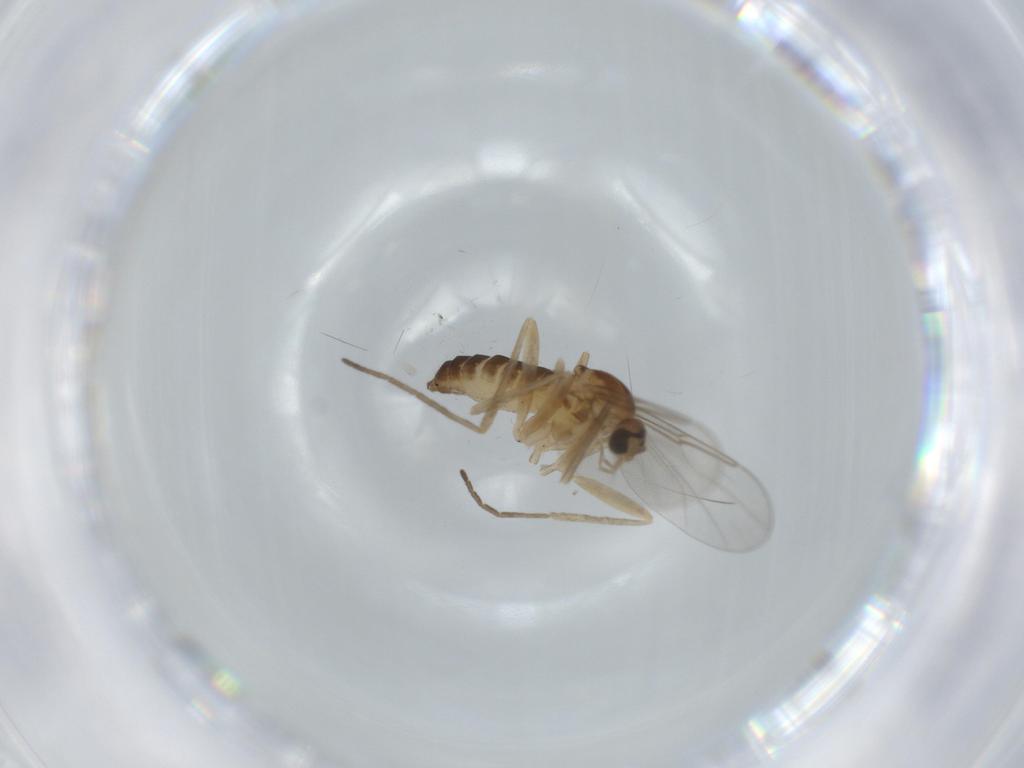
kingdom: Animalia
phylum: Arthropoda
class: Insecta
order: Diptera
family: Cecidomyiidae
